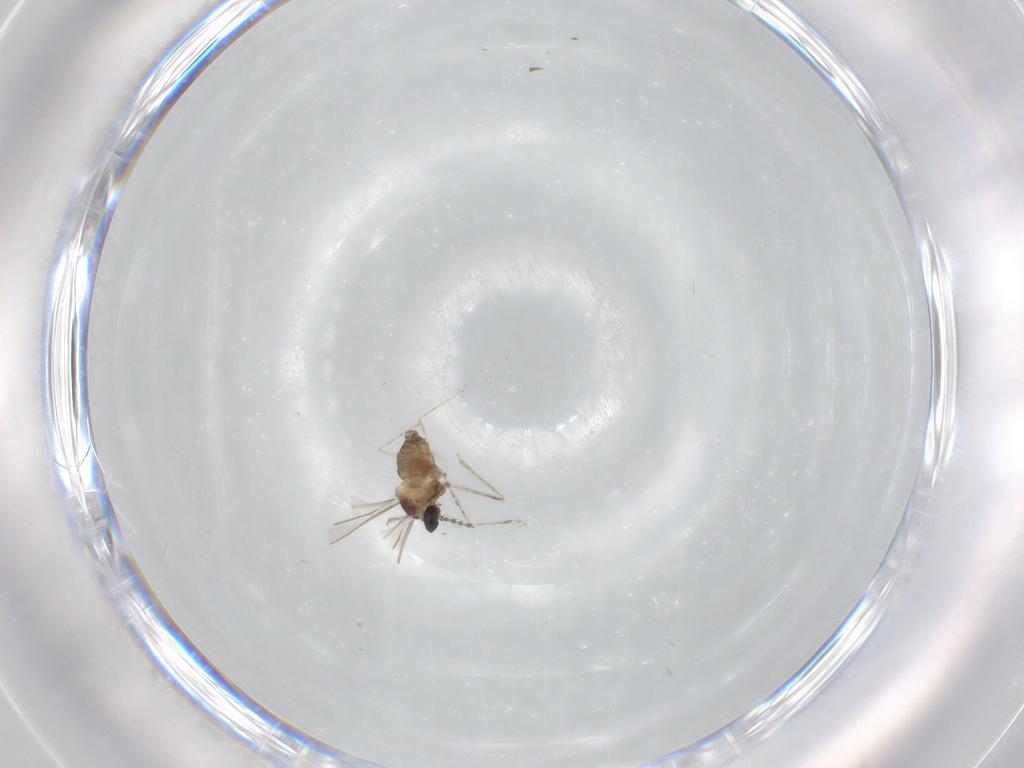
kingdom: Animalia
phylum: Arthropoda
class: Insecta
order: Diptera
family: Cecidomyiidae
